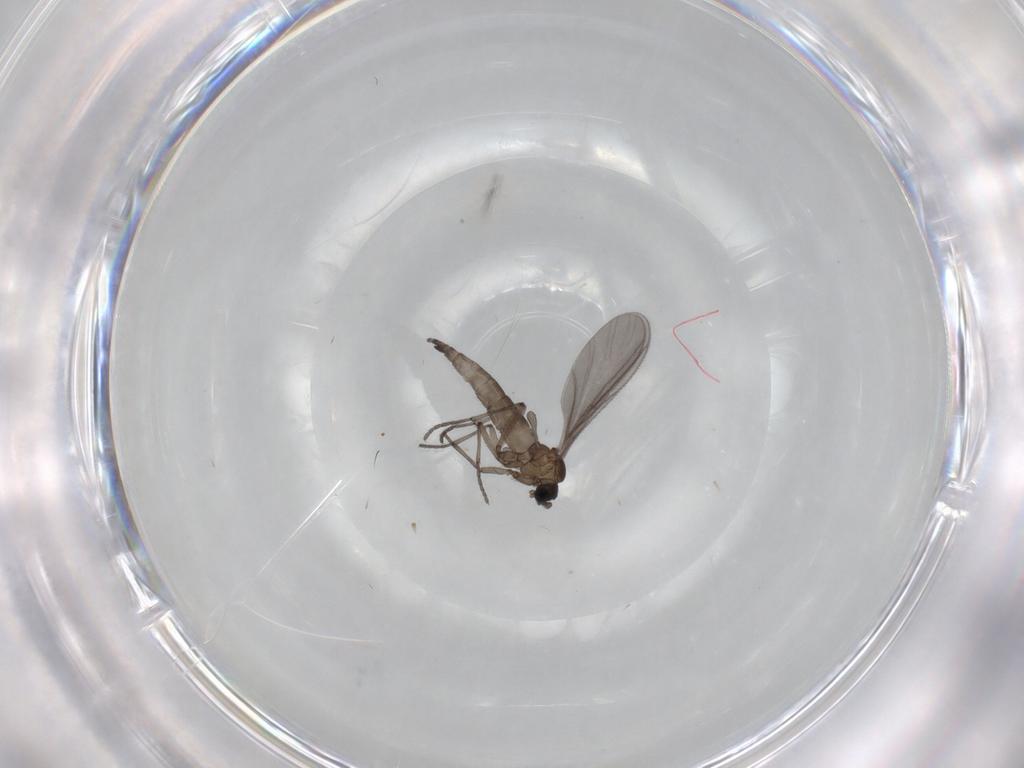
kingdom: Animalia
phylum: Arthropoda
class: Insecta
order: Diptera
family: Sciaridae
